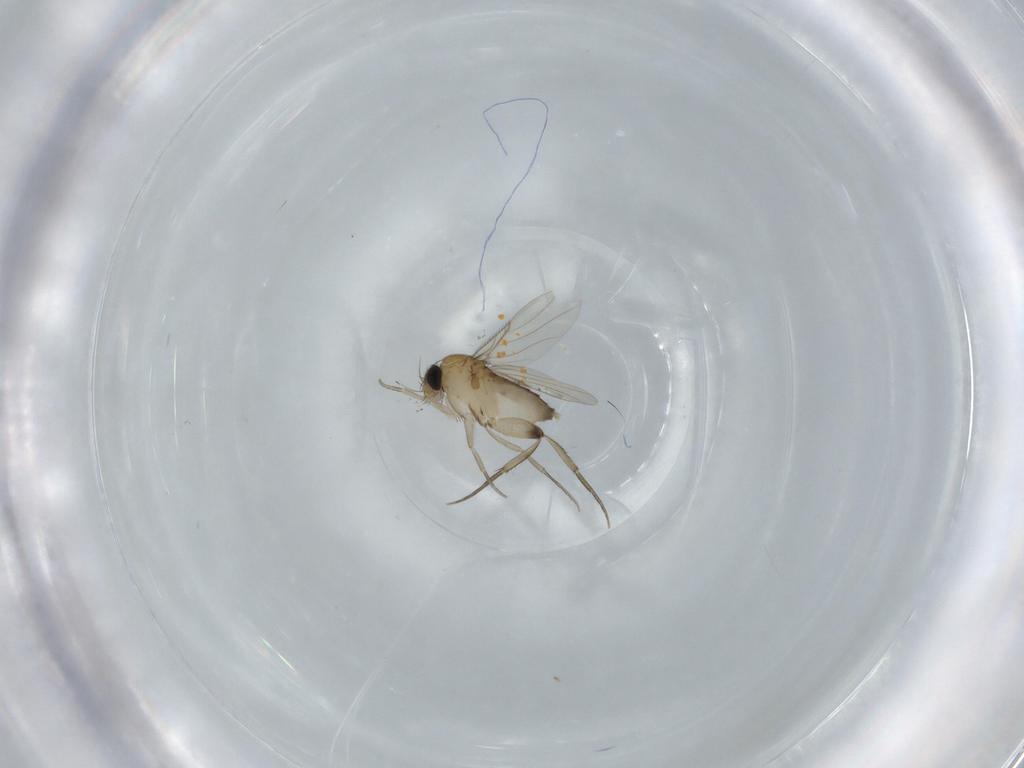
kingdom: Animalia
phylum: Arthropoda
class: Insecta
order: Diptera
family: Phoridae
